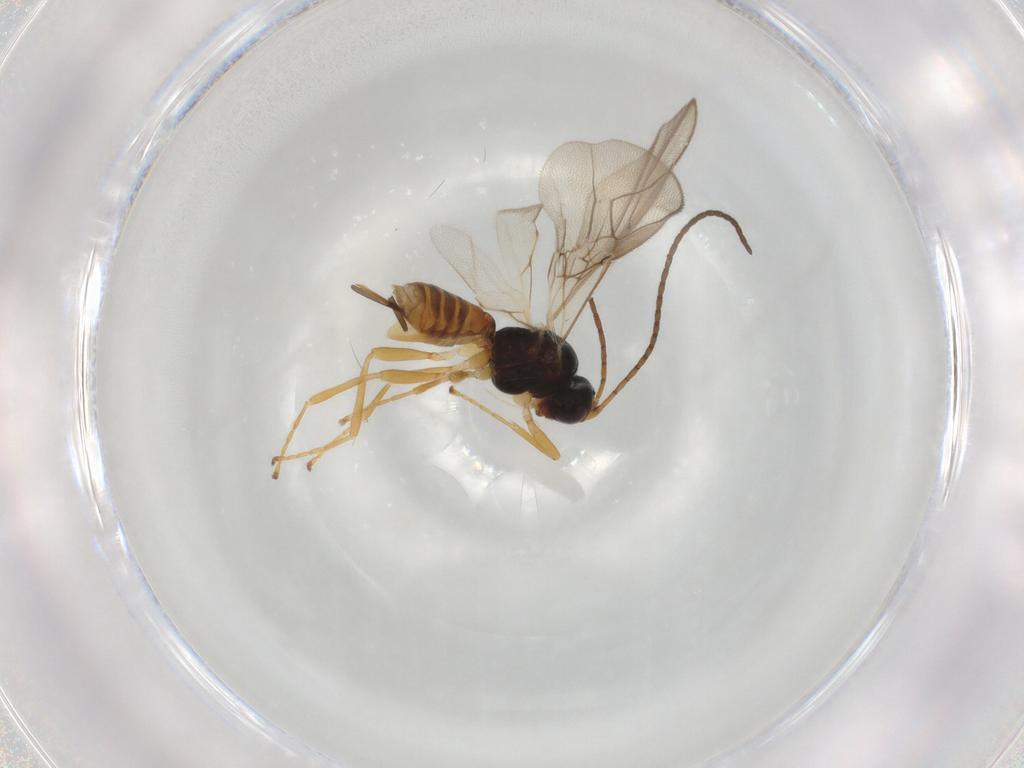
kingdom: Animalia
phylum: Arthropoda
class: Insecta
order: Hymenoptera
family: Braconidae
